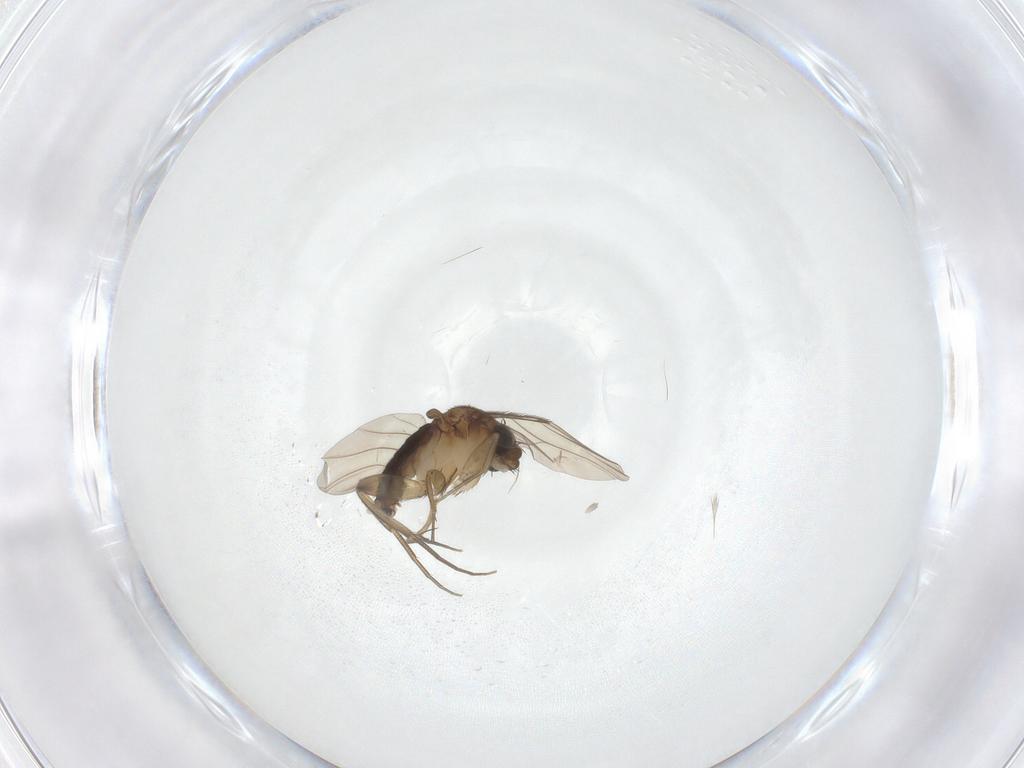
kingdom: Animalia
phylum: Arthropoda
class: Insecta
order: Diptera
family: Phoridae
